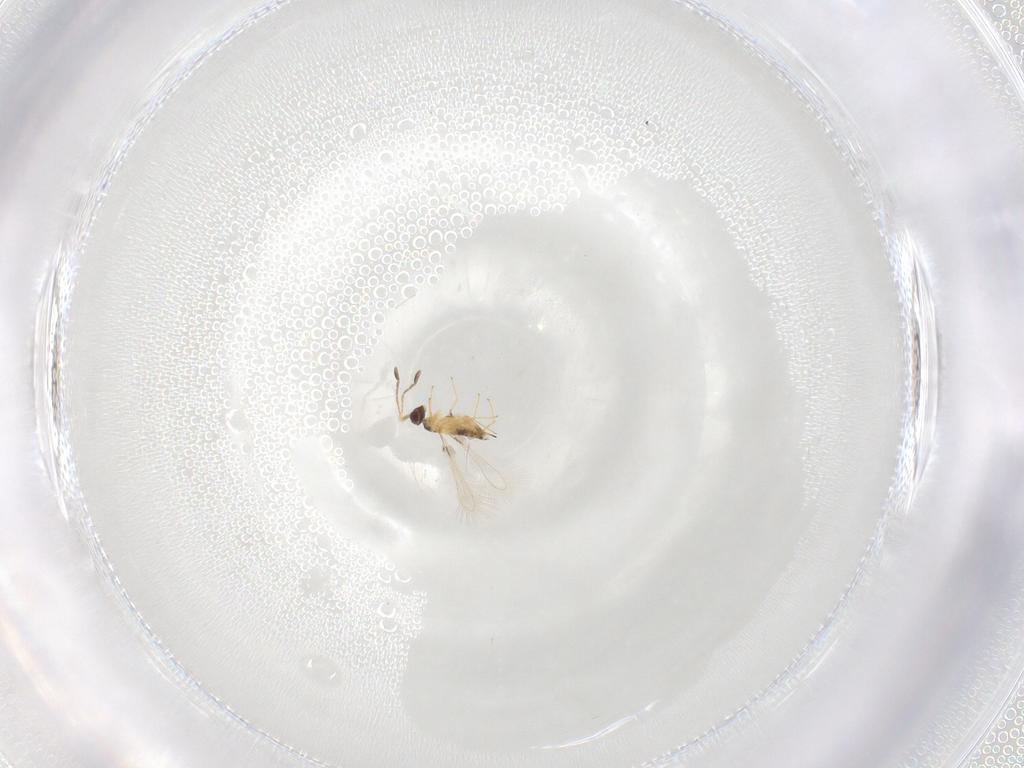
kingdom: Animalia
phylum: Arthropoda
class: Insecta
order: Hymenoptera
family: Mymaridae
